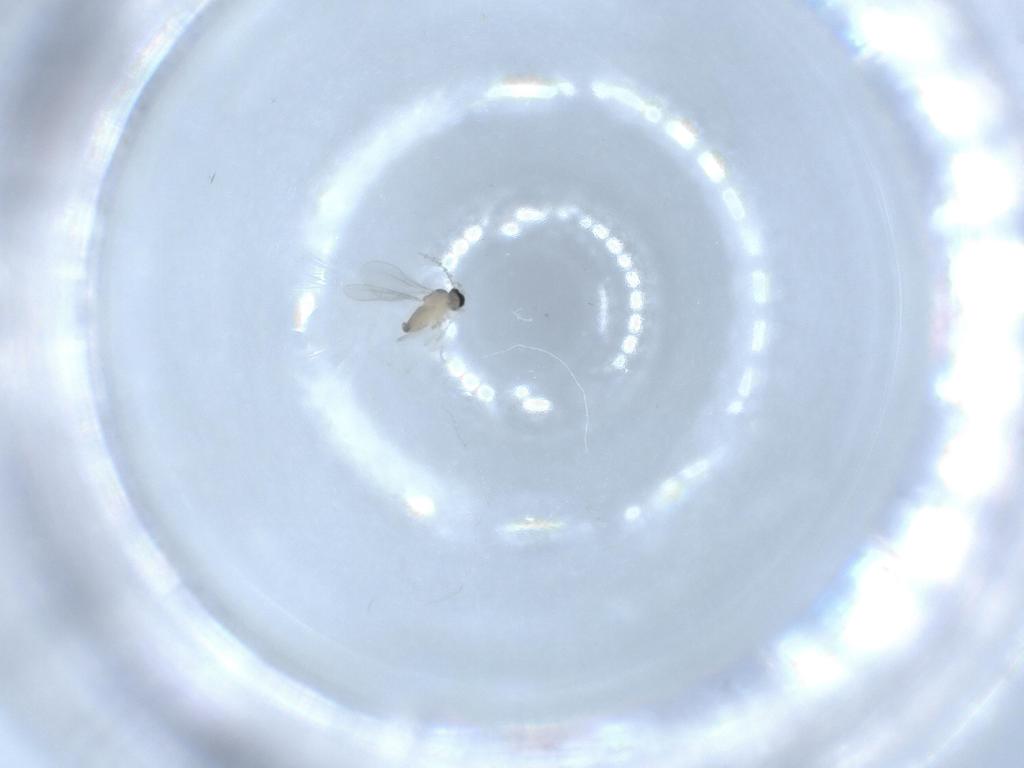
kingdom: Animalia
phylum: Arthropoda
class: Insecta
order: Diptera
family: Cecidomyiidae
